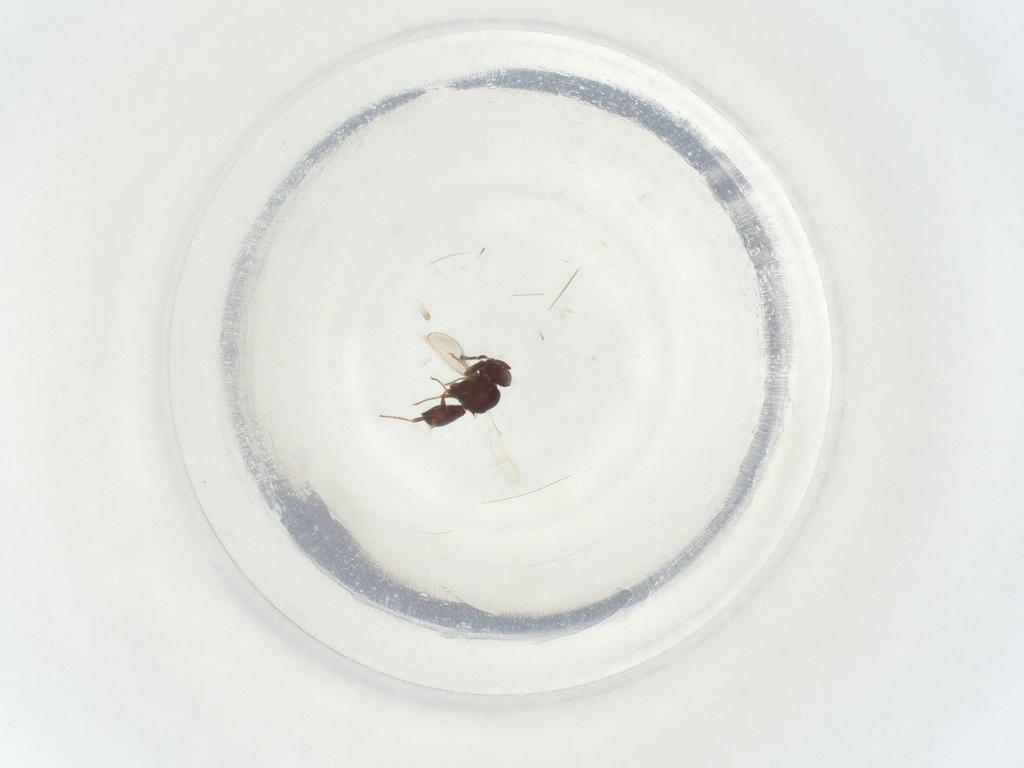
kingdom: Animalia
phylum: Arthropoda
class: Insecta
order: Hymenoptera
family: Scelionidae
